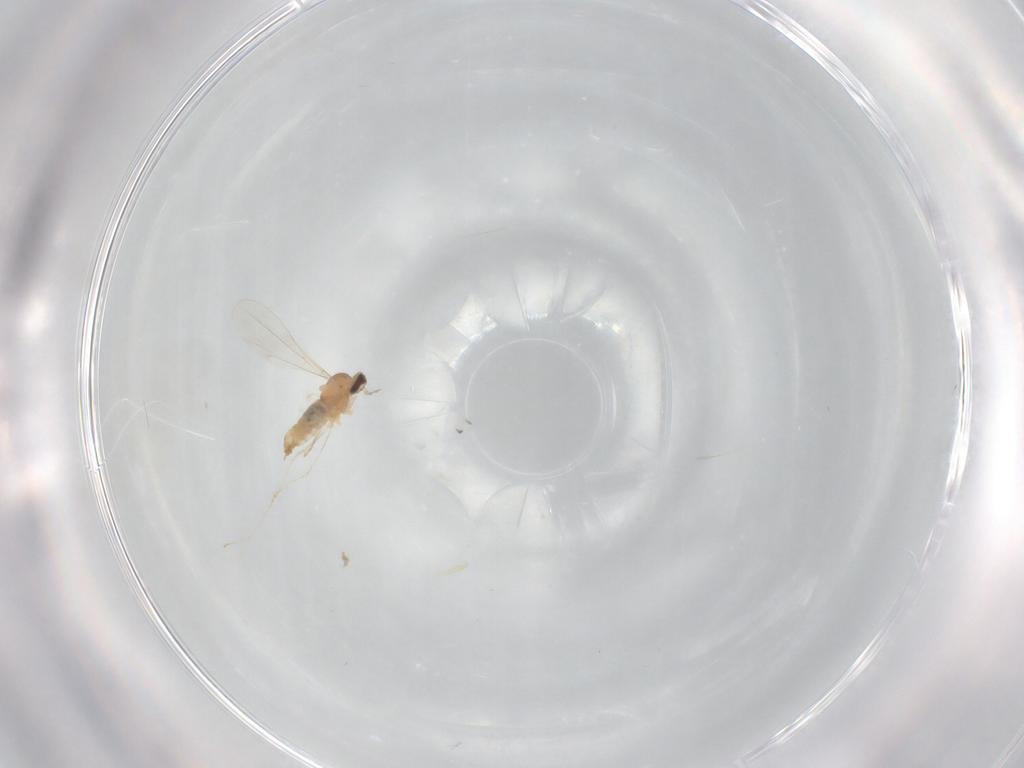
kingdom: Animalia
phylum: Arthropoda
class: Insecta
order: Diptera
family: Cecidomyiidae
